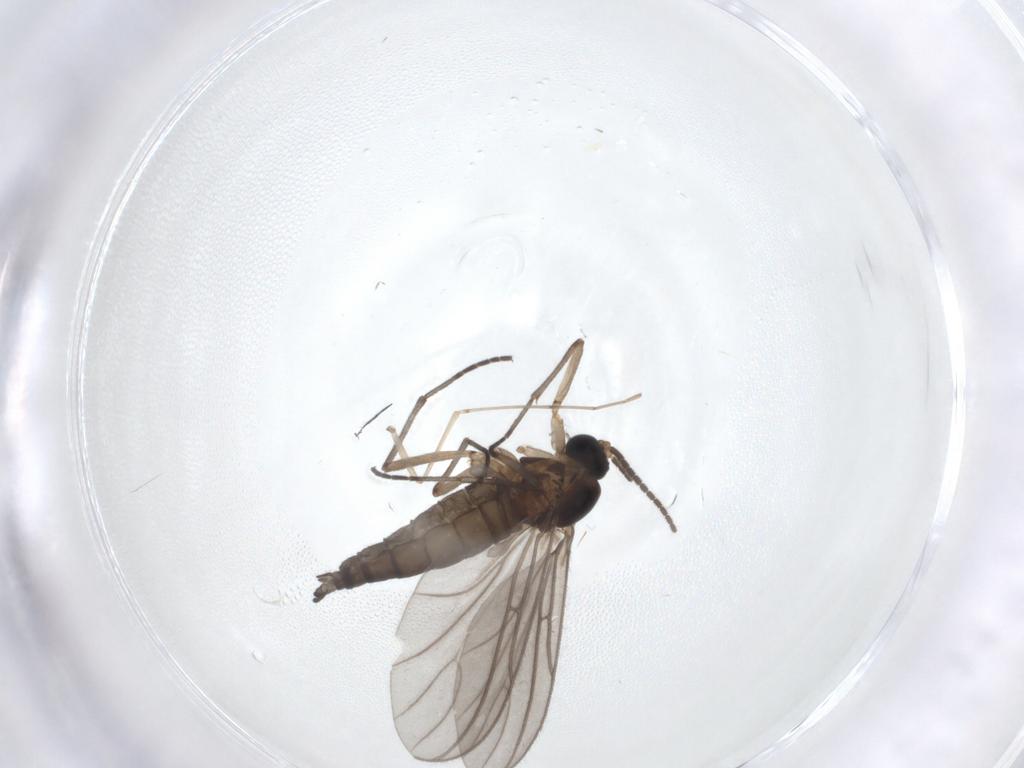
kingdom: Animalia
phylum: Arthropoda
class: Insecta
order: Diptera
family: Sciaridae
